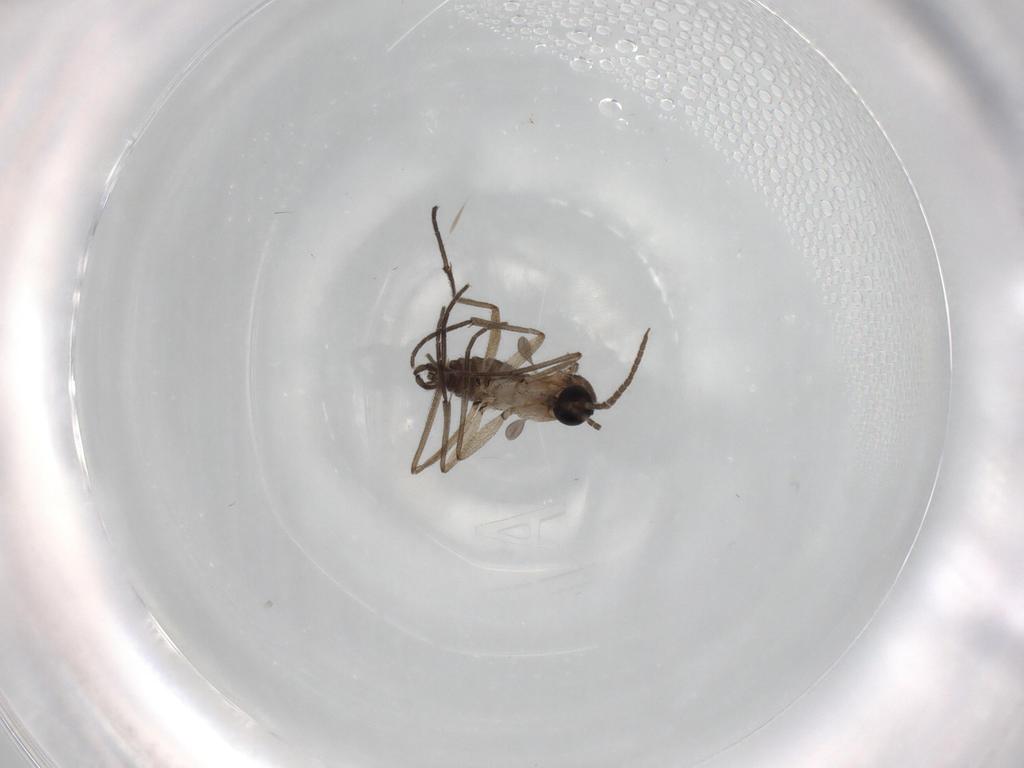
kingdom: Animalia
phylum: Arthropoda
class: Insecta
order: Diptera
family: Sciaridae
